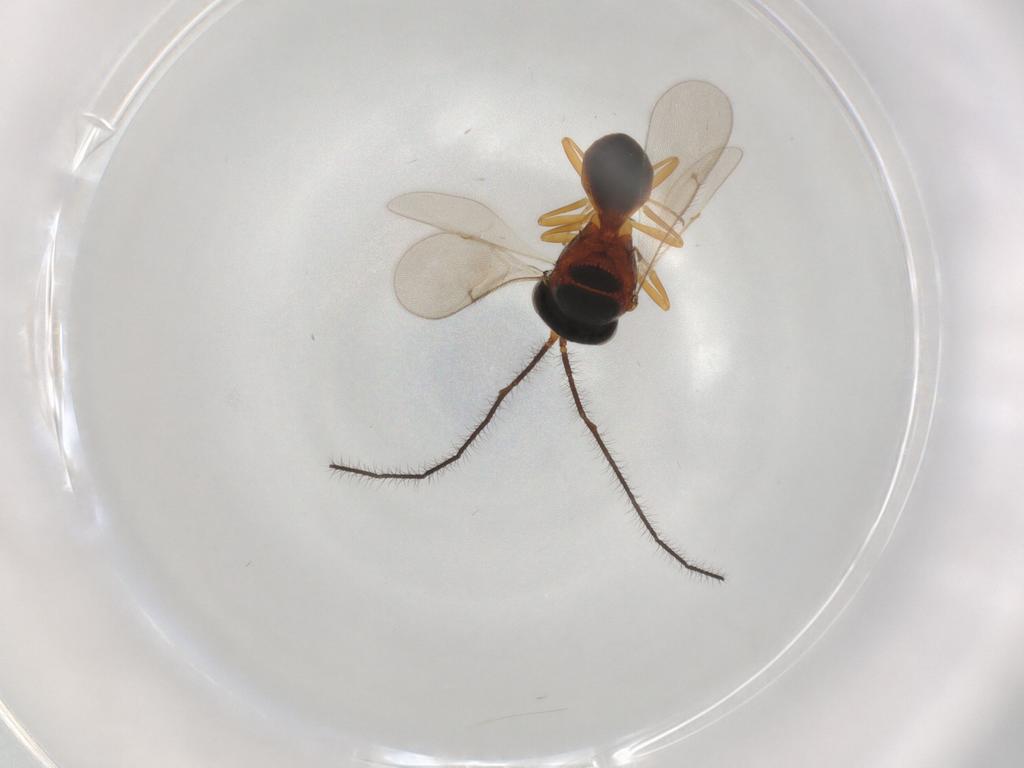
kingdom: Animalia
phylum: Arthropoda
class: Insecta
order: Hymenoptera
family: Scelionidae
